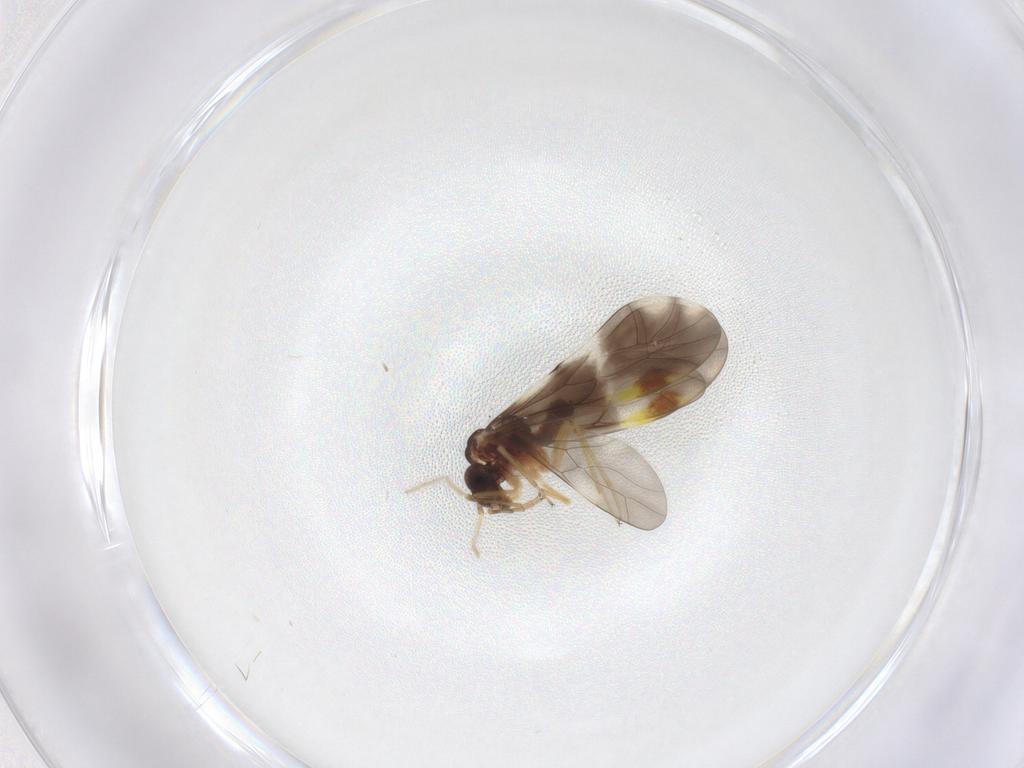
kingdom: Animalia
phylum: Arthropoda
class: Insecta
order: Psocodea
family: Peripsocidae
